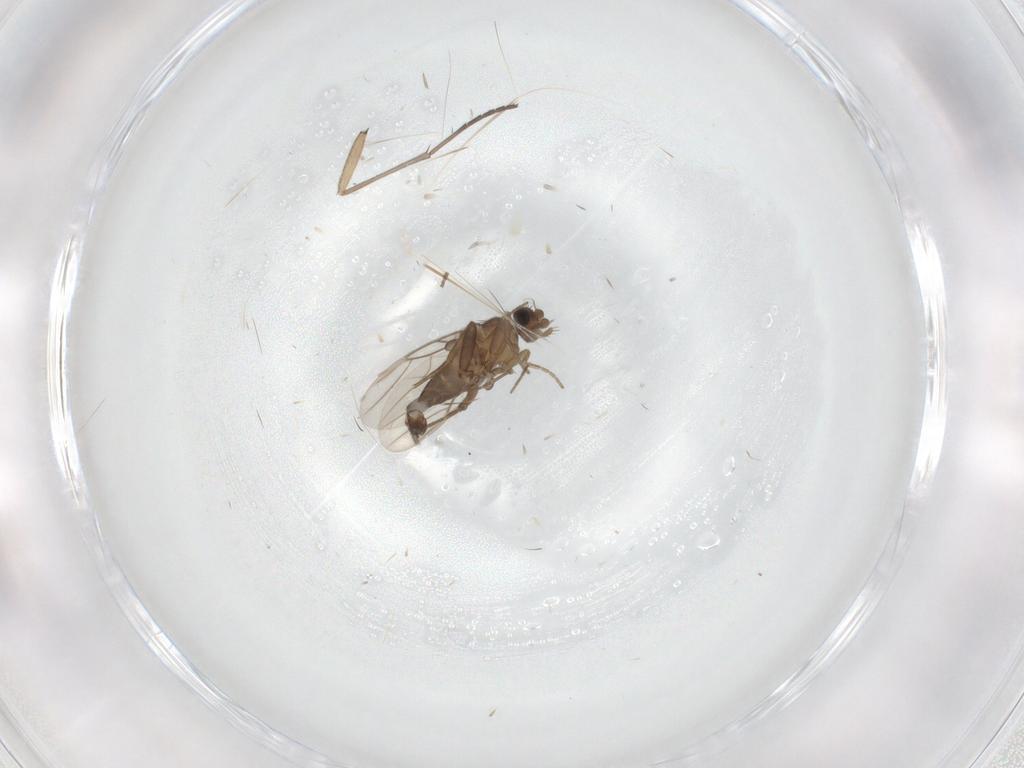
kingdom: Animalia
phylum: Arthropoda
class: Insecta
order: Diptera
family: Phoridae
